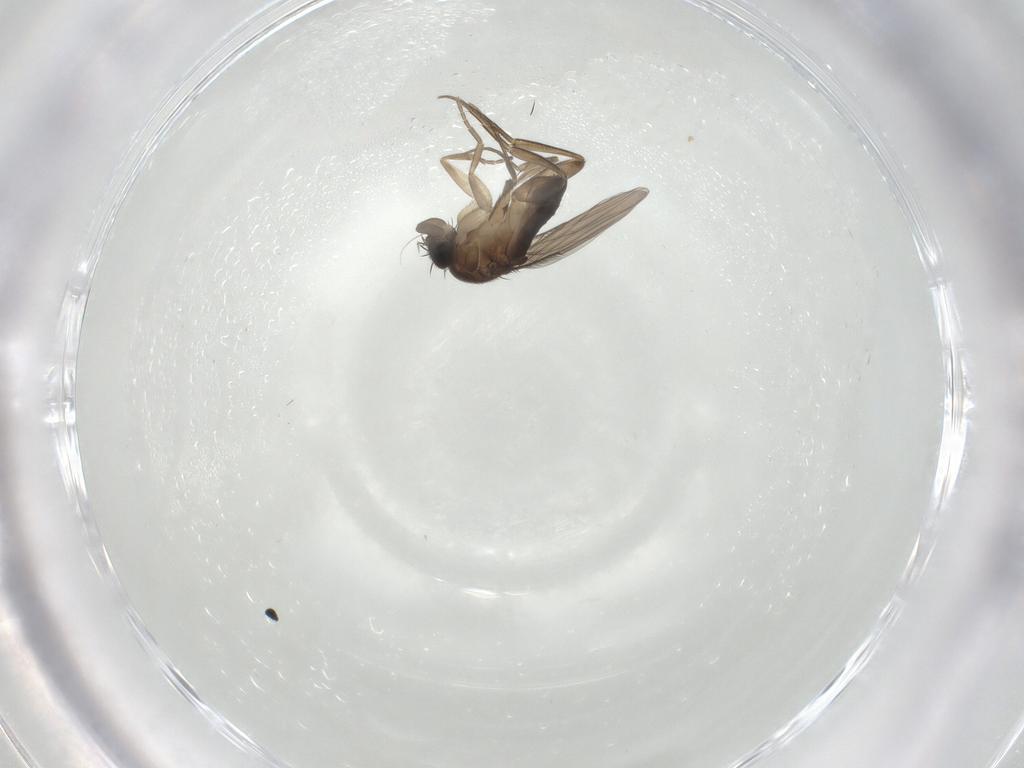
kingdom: Animalia
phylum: Arthropoda
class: Insecta
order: Diptera
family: Phoridae
